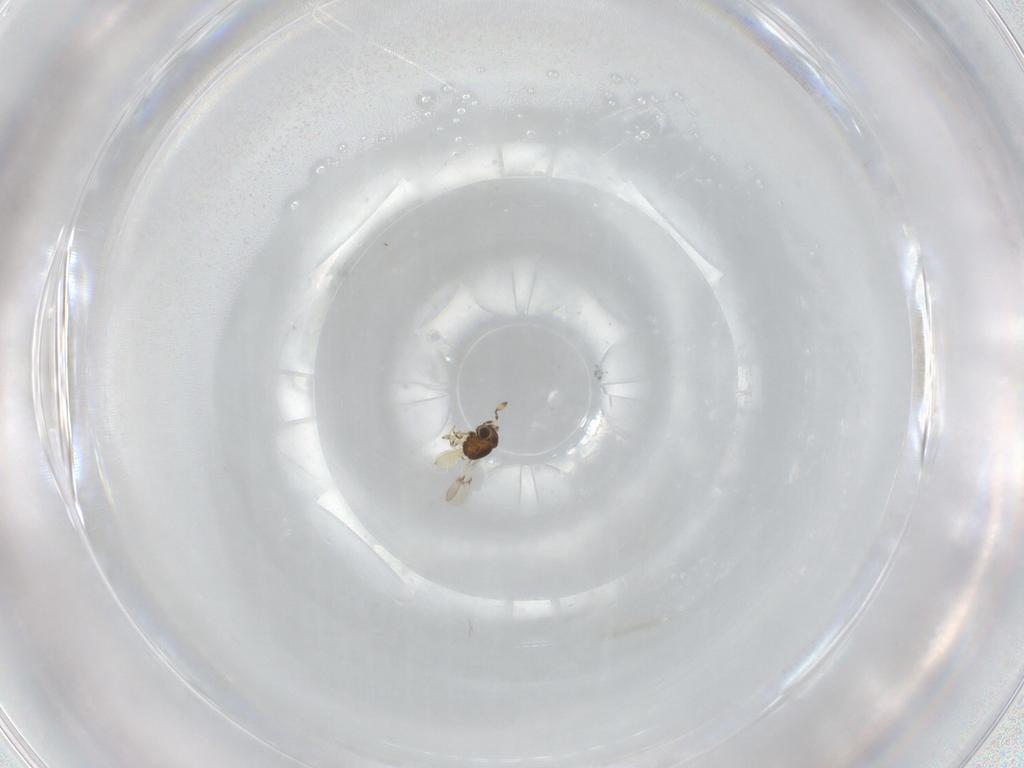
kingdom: Animalia
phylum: Arthropoda
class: Insecta
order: Hymenoptera
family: Scelionidae
